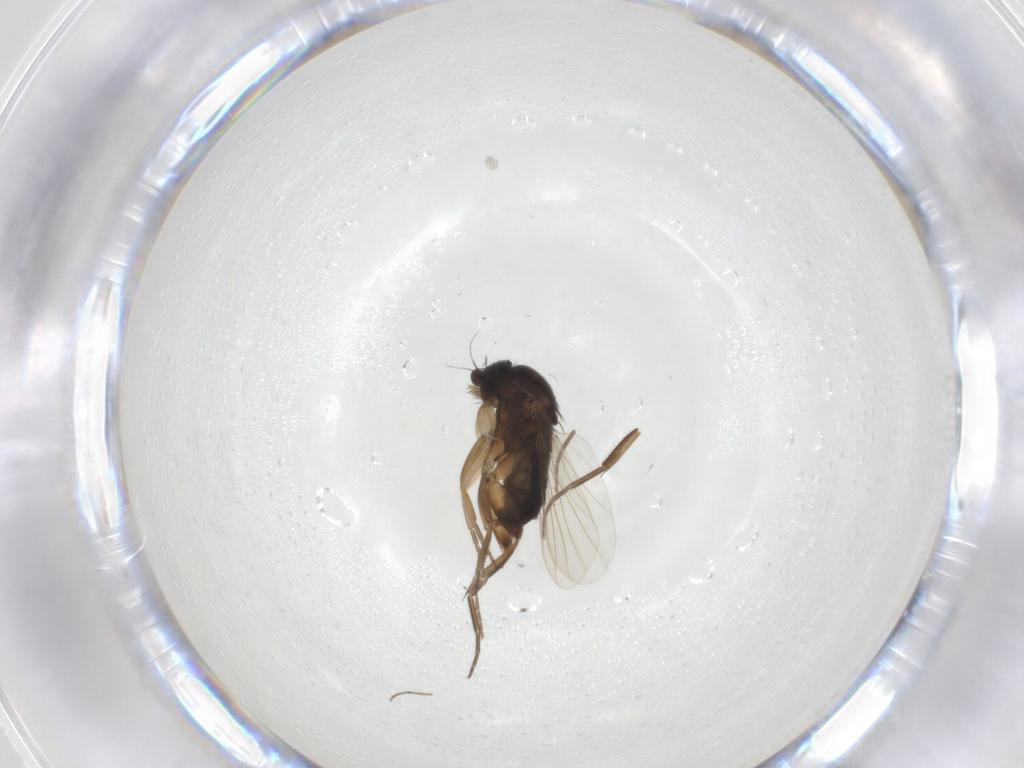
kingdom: Animalia
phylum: Arthropoda
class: Insecta
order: Diptera
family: Phoridae
